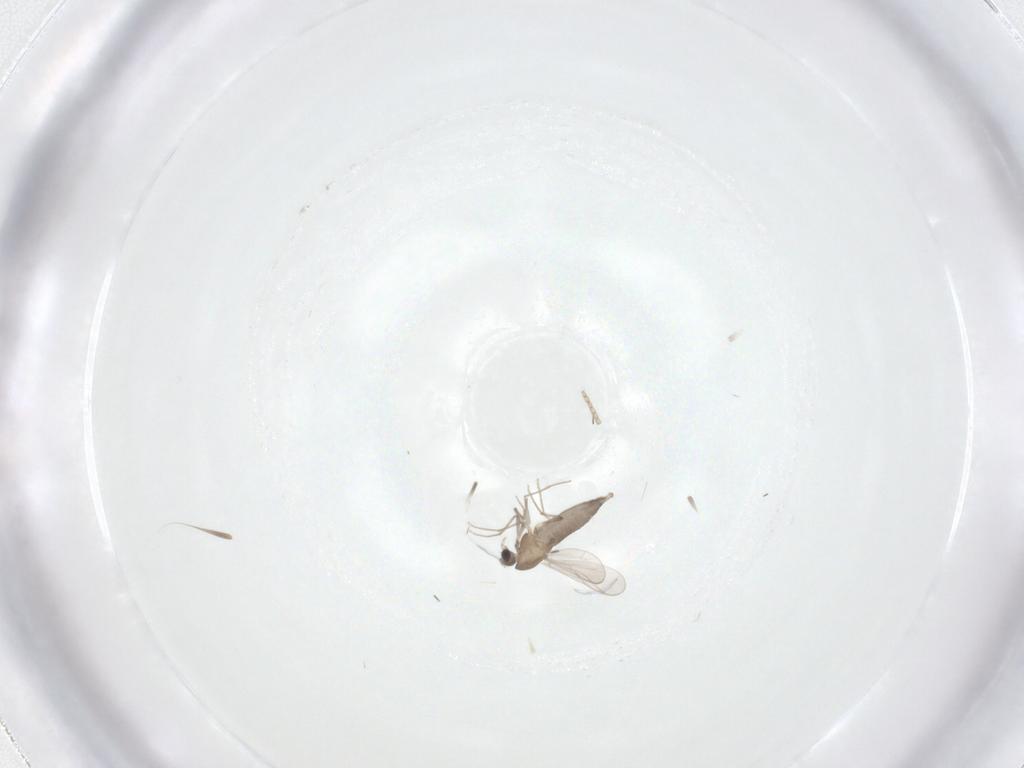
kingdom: Animalia
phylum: Arthropoda
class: Insecta
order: Diptera
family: Chironomidae
